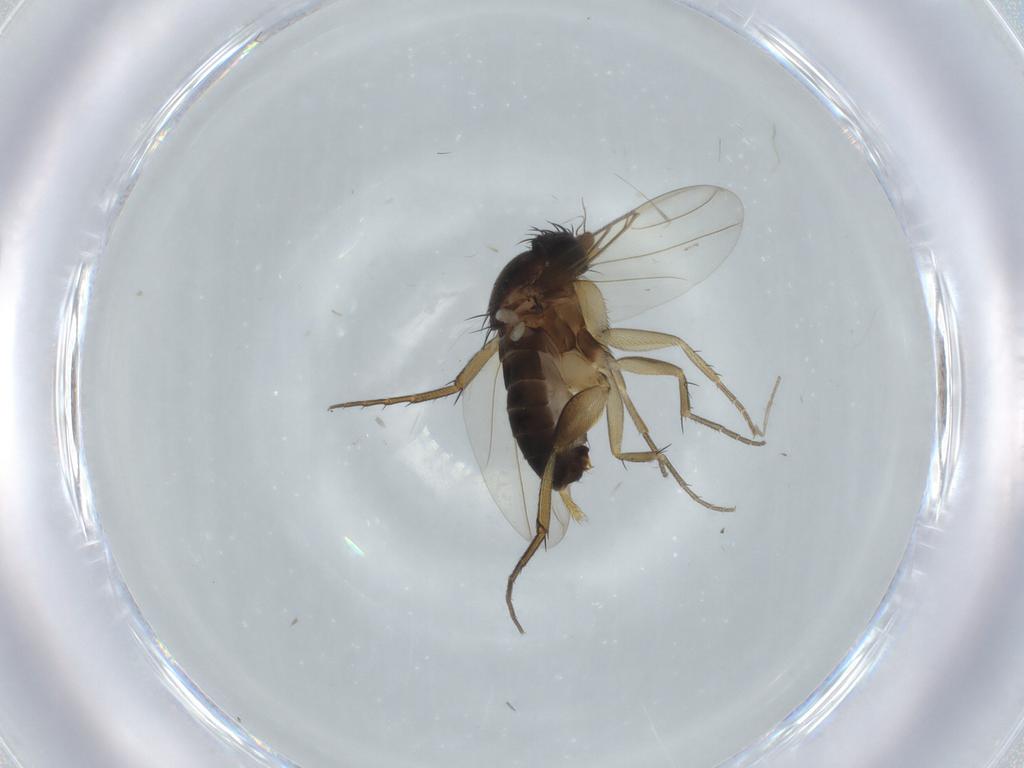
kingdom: Animalia
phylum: Arthropoda
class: Insecta
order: Diptera
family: Phoridae
